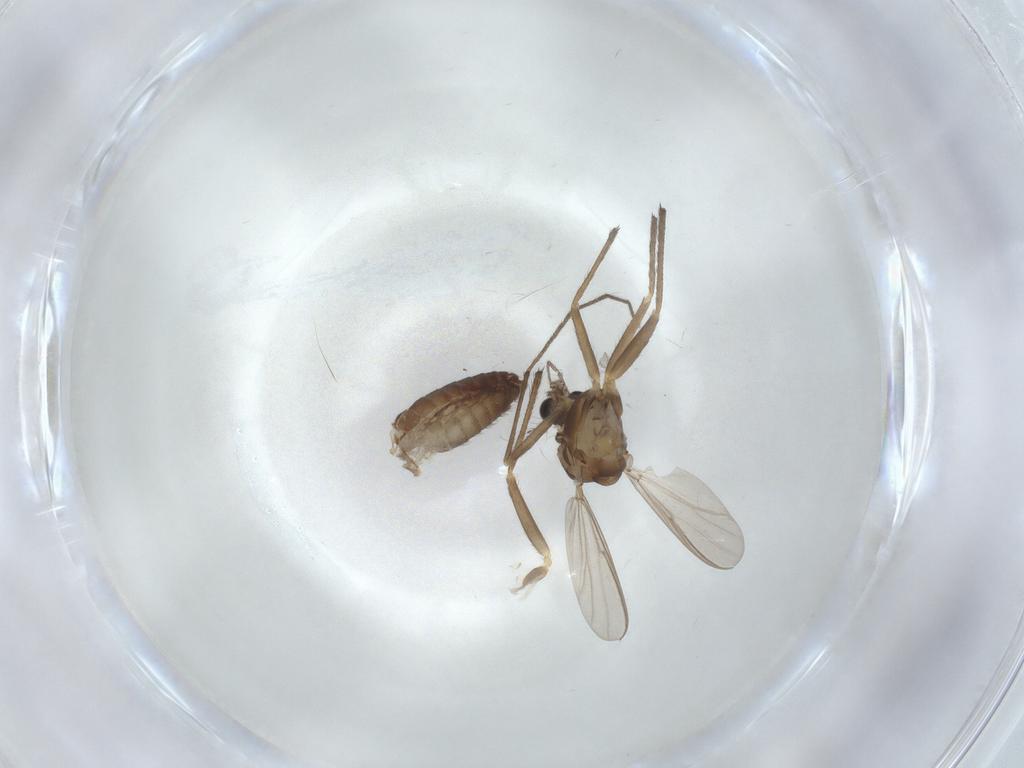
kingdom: Animalia
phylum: Arthropoda
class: Insecta
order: Diptera
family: Chironomidae
